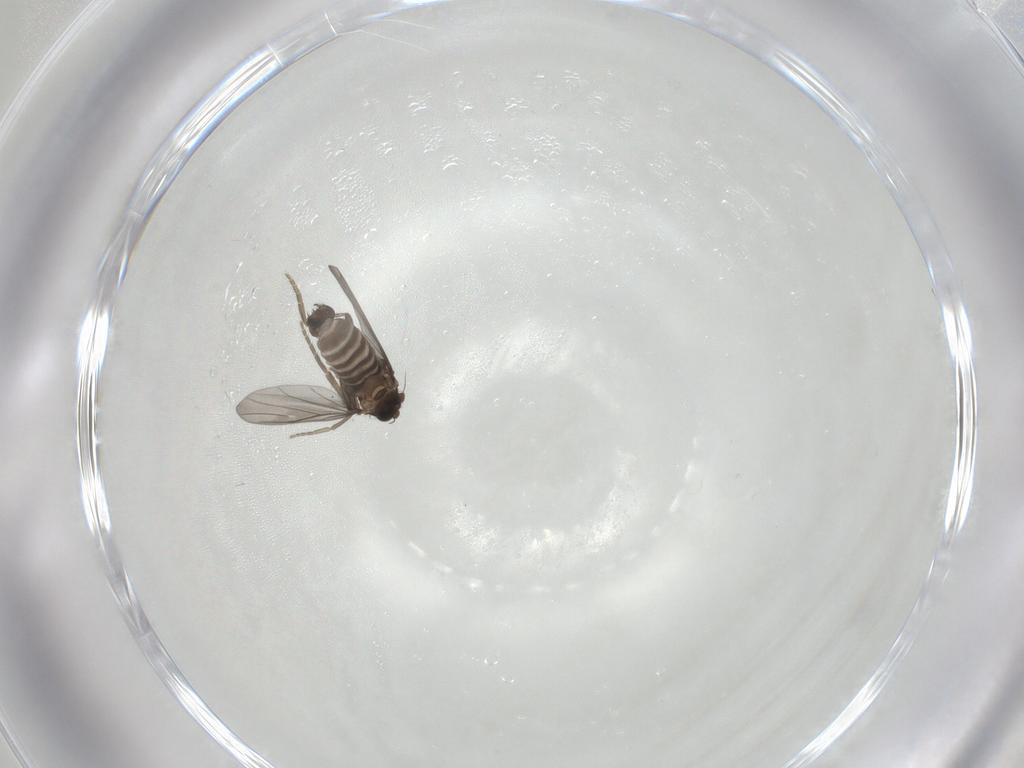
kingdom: Animalia
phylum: Arthropoda
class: Insecta
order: Diptera
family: Tabanidae
